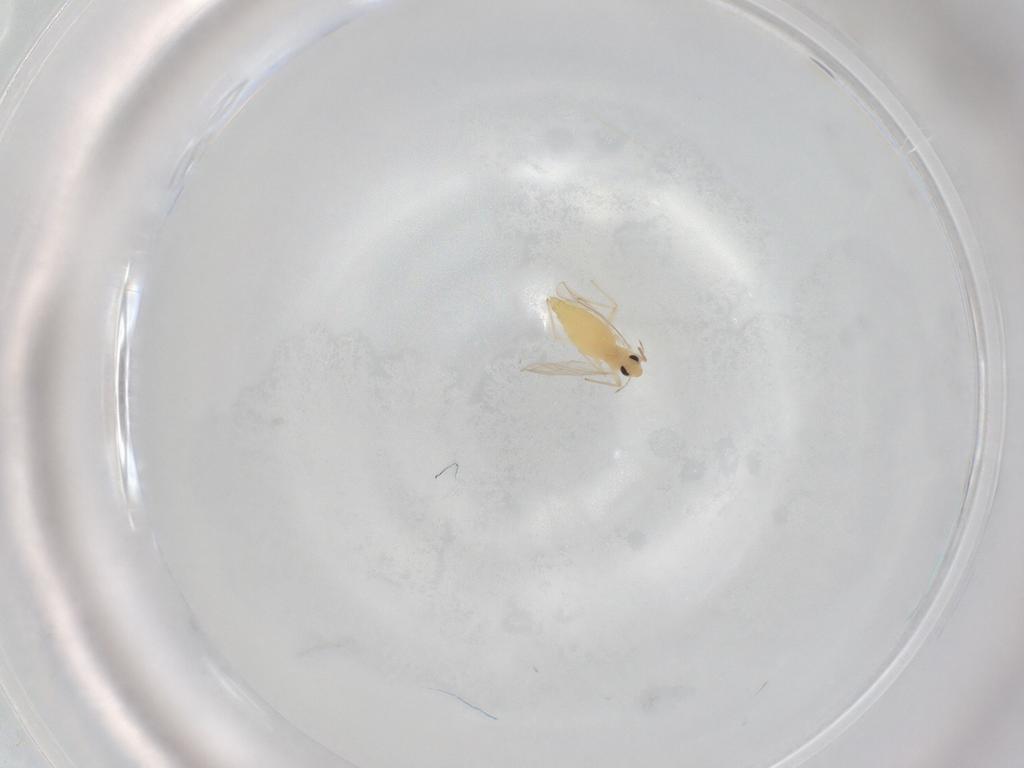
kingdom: Animalia
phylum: Arthropoda
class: Insecta
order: Diptera
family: Chironomidae
